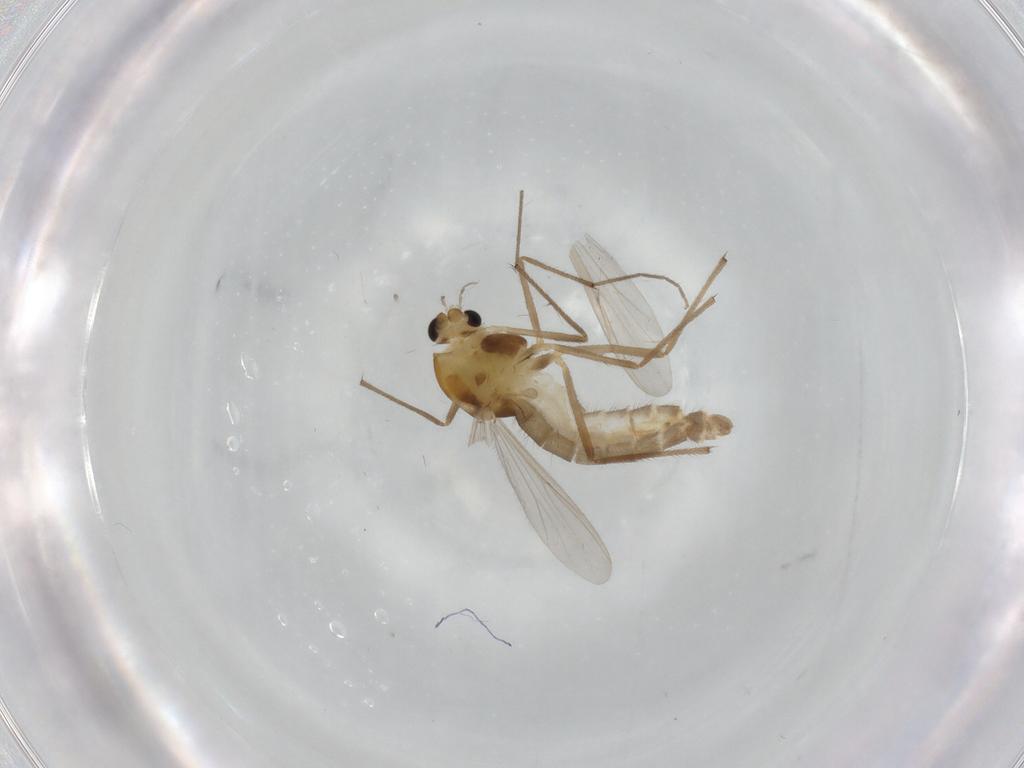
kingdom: Animalia
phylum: Arthropoda
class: Insecta
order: Diptera
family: Chironomidae
